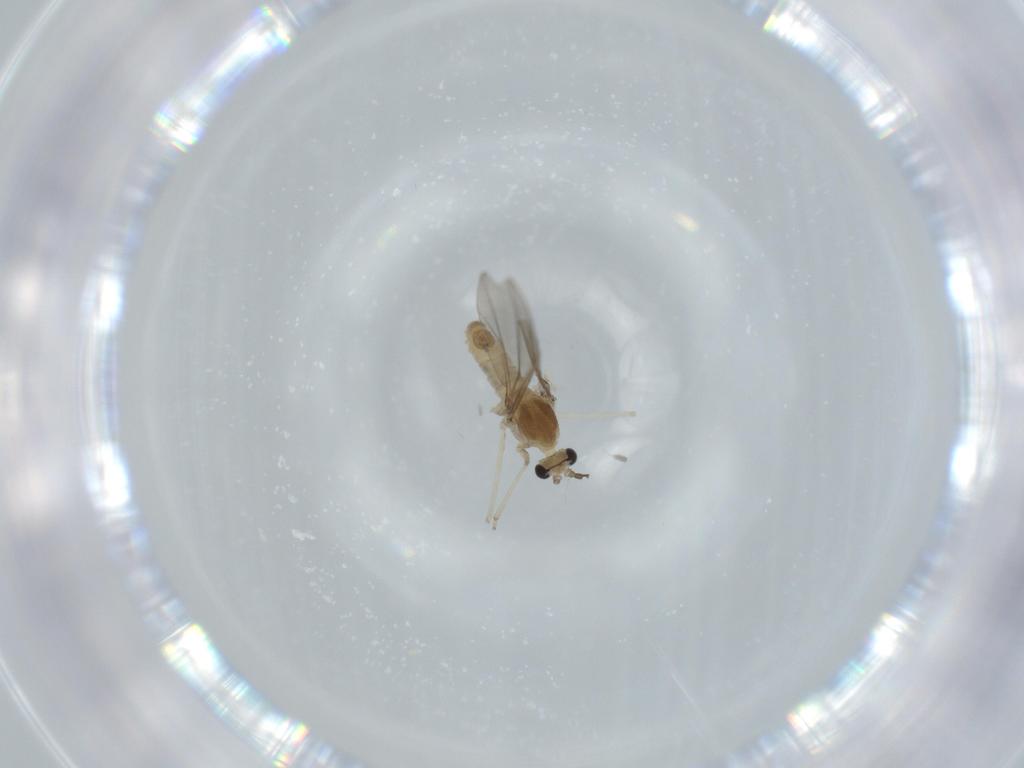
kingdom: Animalia
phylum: Arthropoda
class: Insecta
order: Diptera
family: Cecidomyiidae
